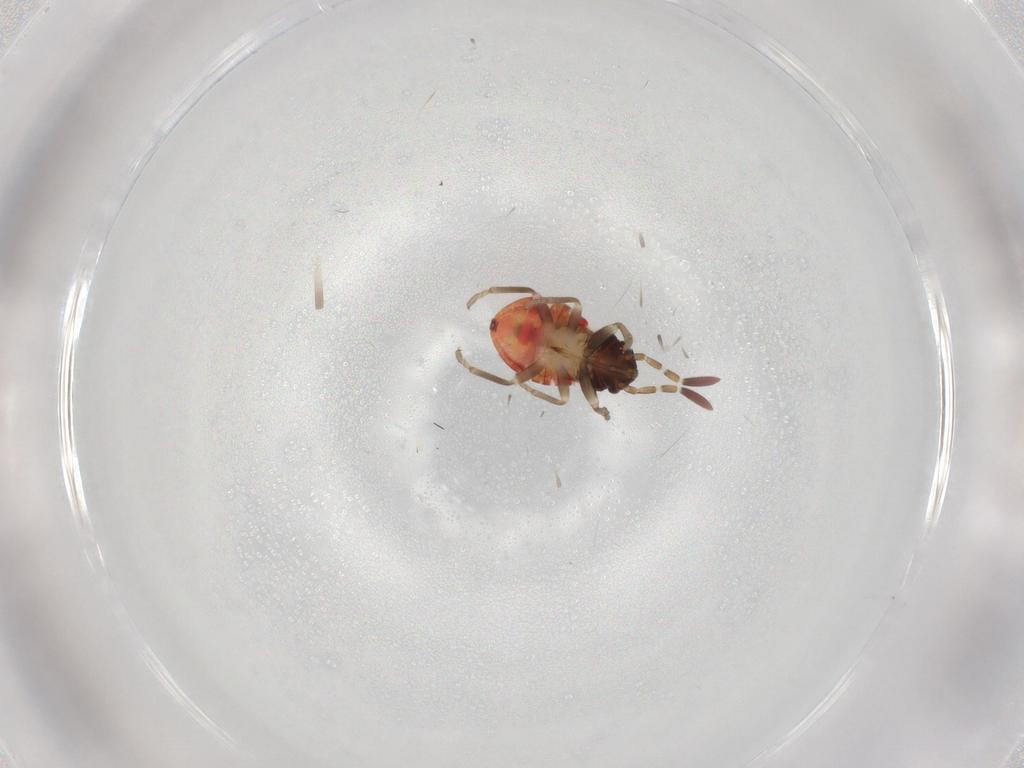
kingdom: Animalia
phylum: Arthropoda
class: Insecta
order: Hemiptera
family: Rhyparochromidae
